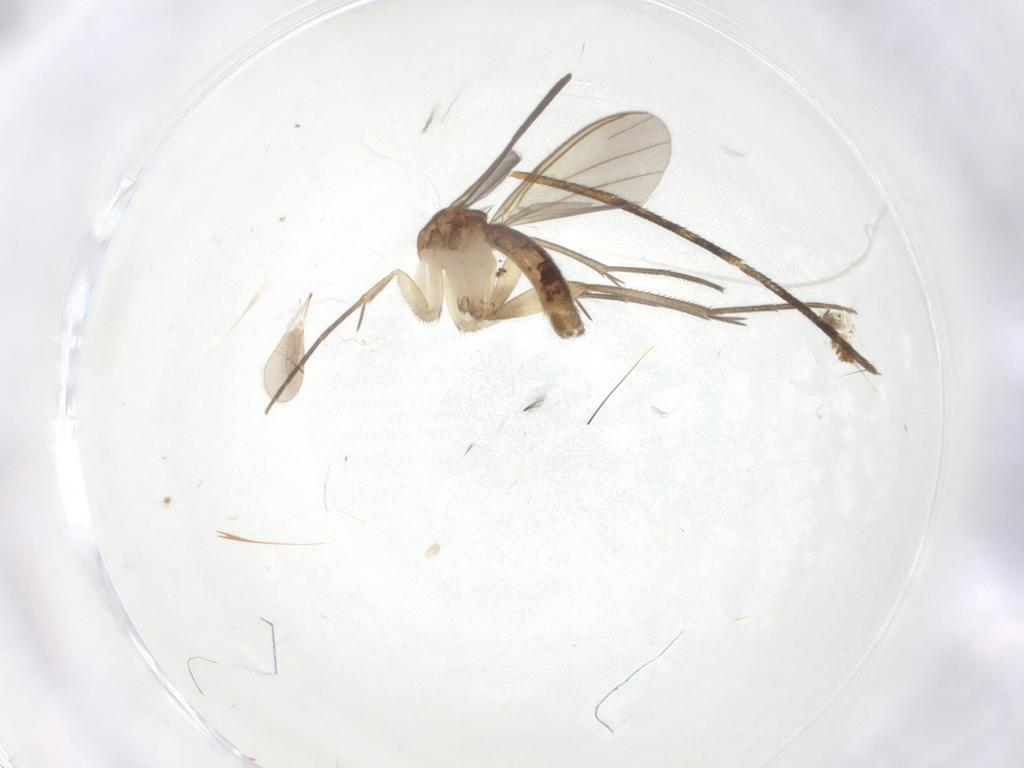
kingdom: Animalia
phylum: Arthropoda
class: Insecta
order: Diptera
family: Mycetophilidae
